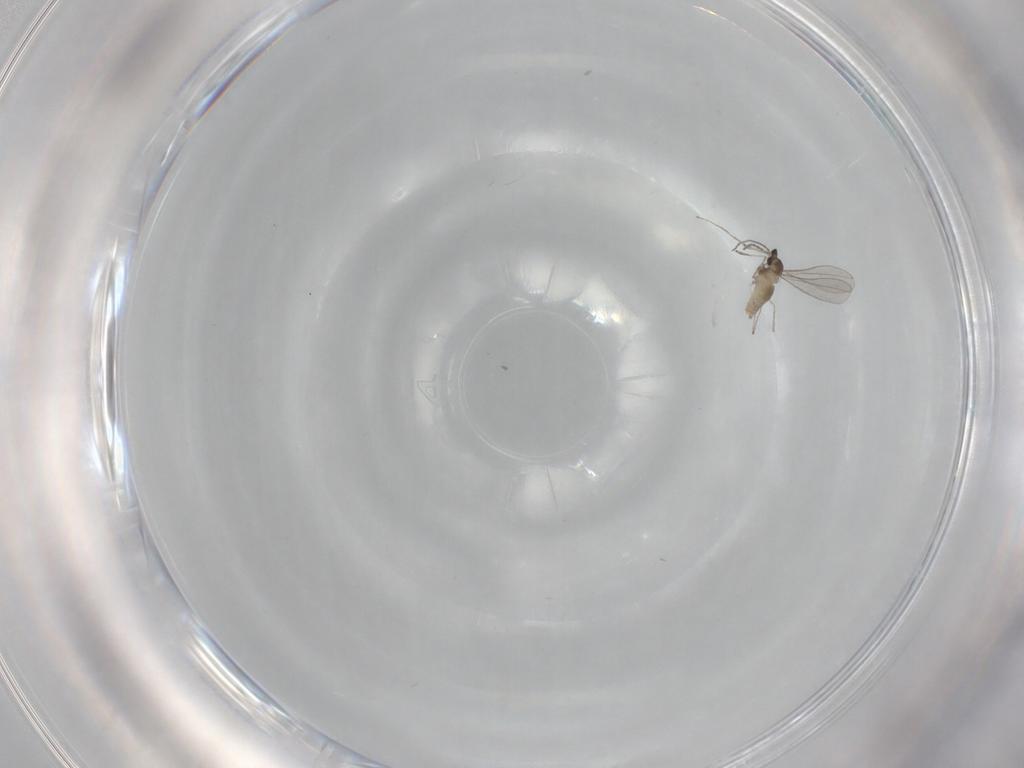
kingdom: Animalia
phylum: Arthropoda
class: Insecta
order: Diptera
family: Cecidomyiidae
